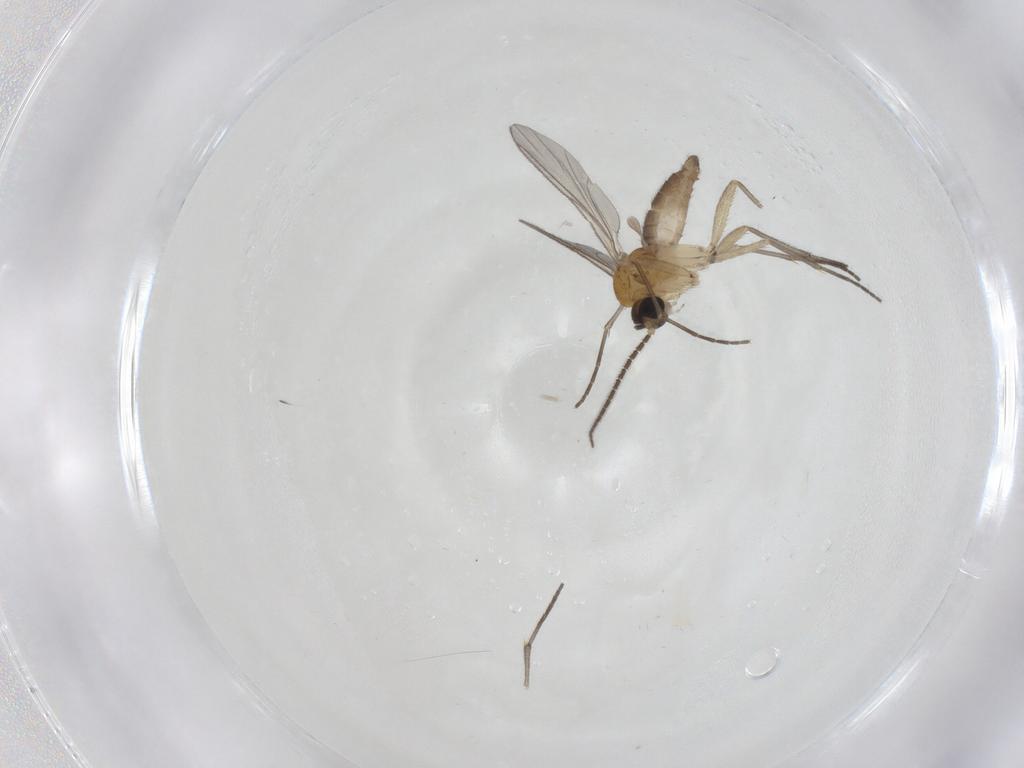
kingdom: Animalia
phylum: Arthropoda
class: Insecta
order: Diptera
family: Sciaridae
